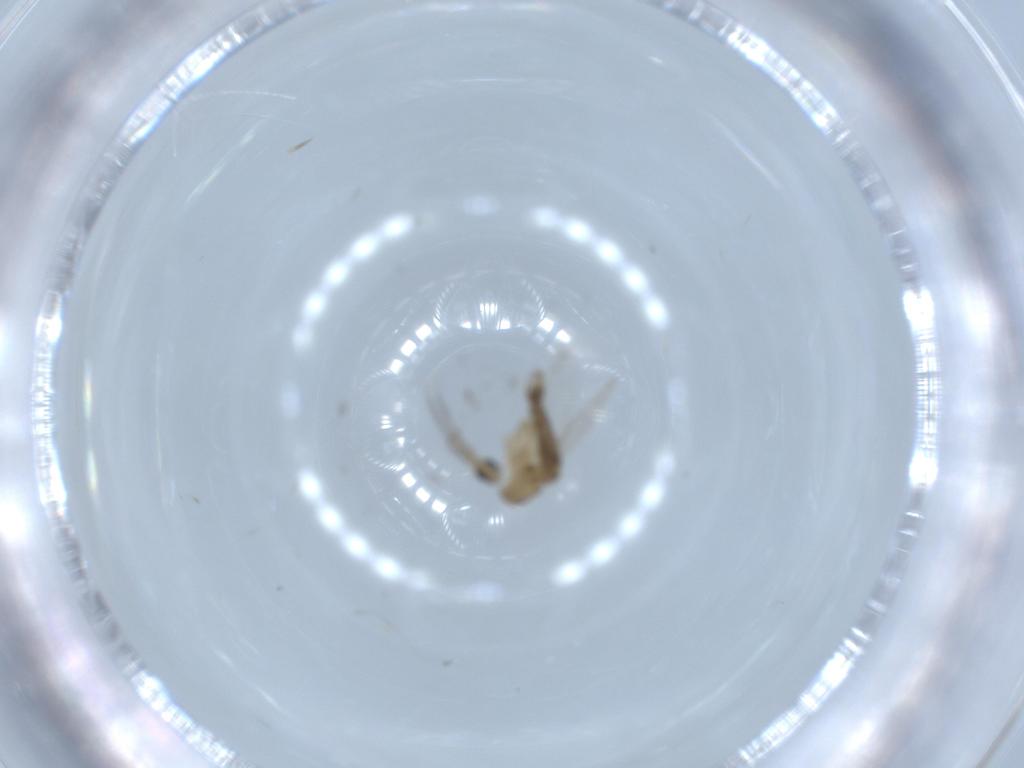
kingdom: Animalia
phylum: Arthropoda
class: Insecta
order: Diptera
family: Psychodidae
